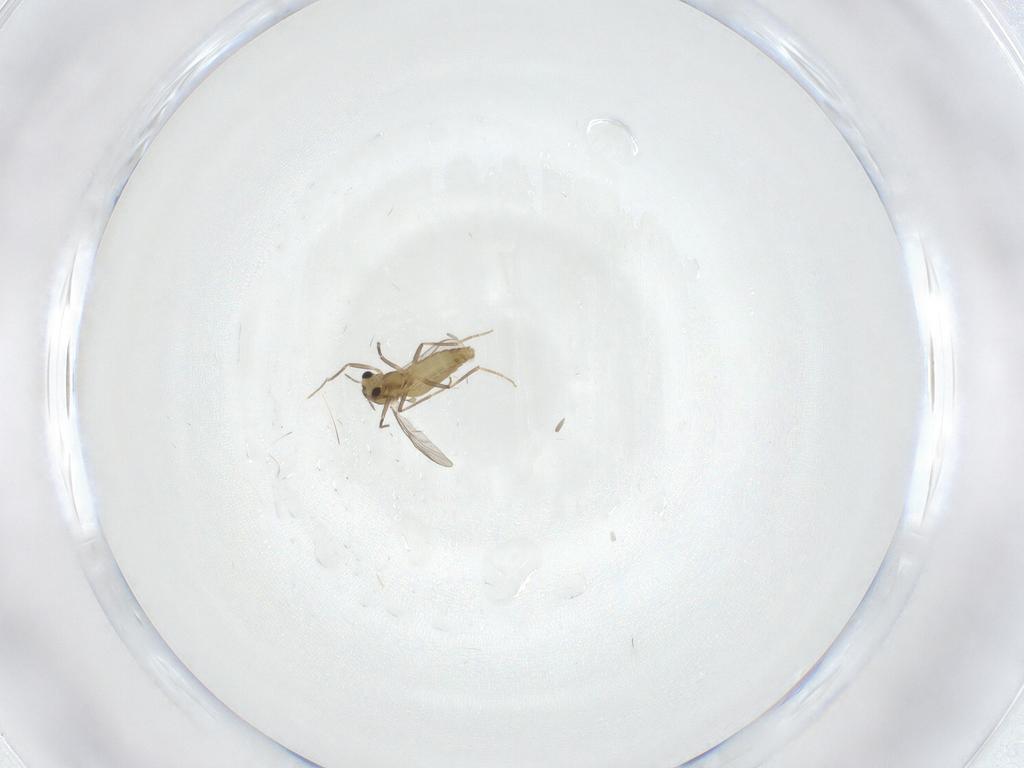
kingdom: Animalia
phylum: Arthropoda
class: Insecta
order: Diptera
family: Chironomidae
